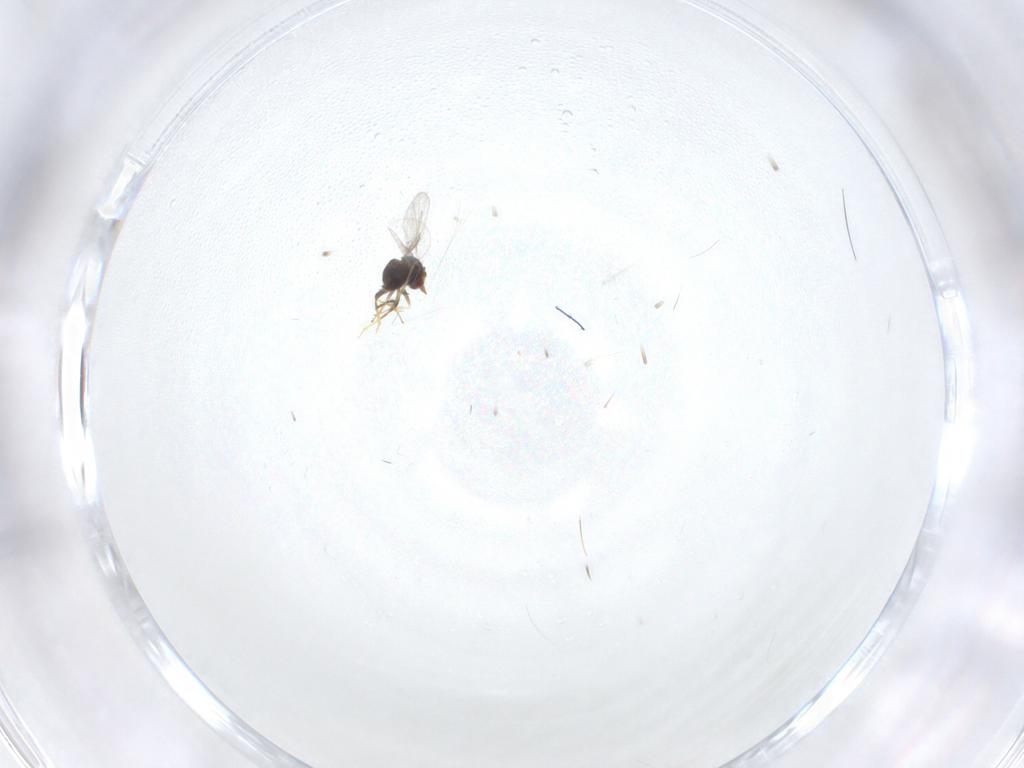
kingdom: Animalia
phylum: Arthropoda
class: Insecta
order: Hymenoptera
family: Trichogrammatidae
